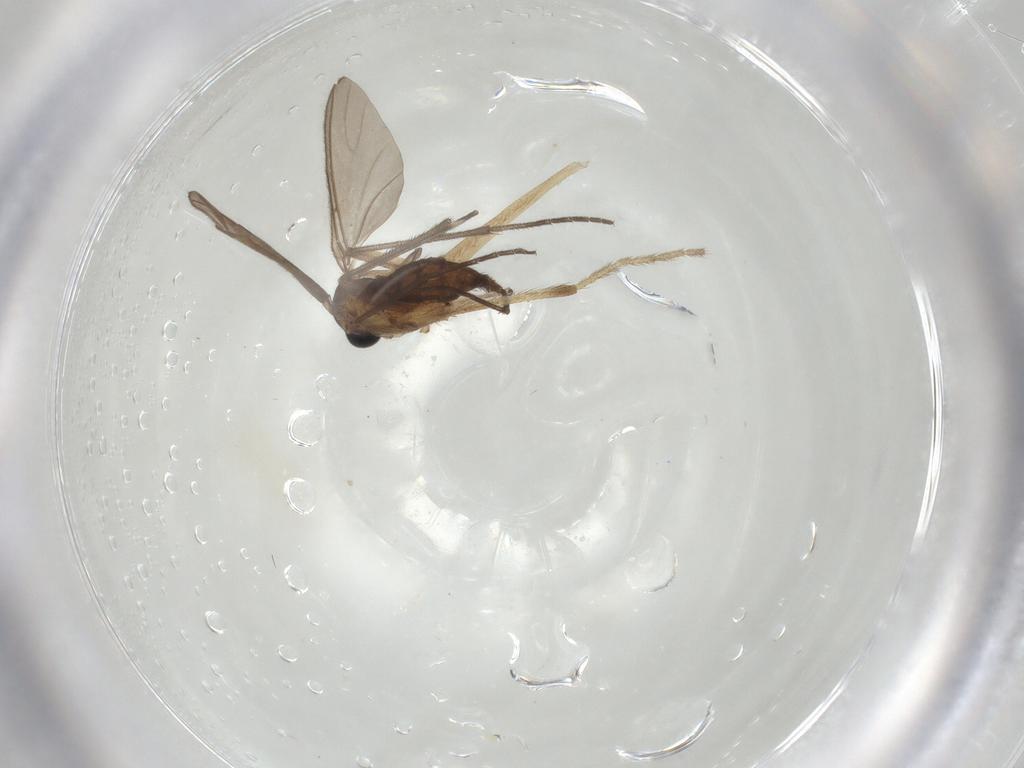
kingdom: Animalia
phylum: Arthropoda
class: Insecta
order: Diptera
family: Sciaridae
